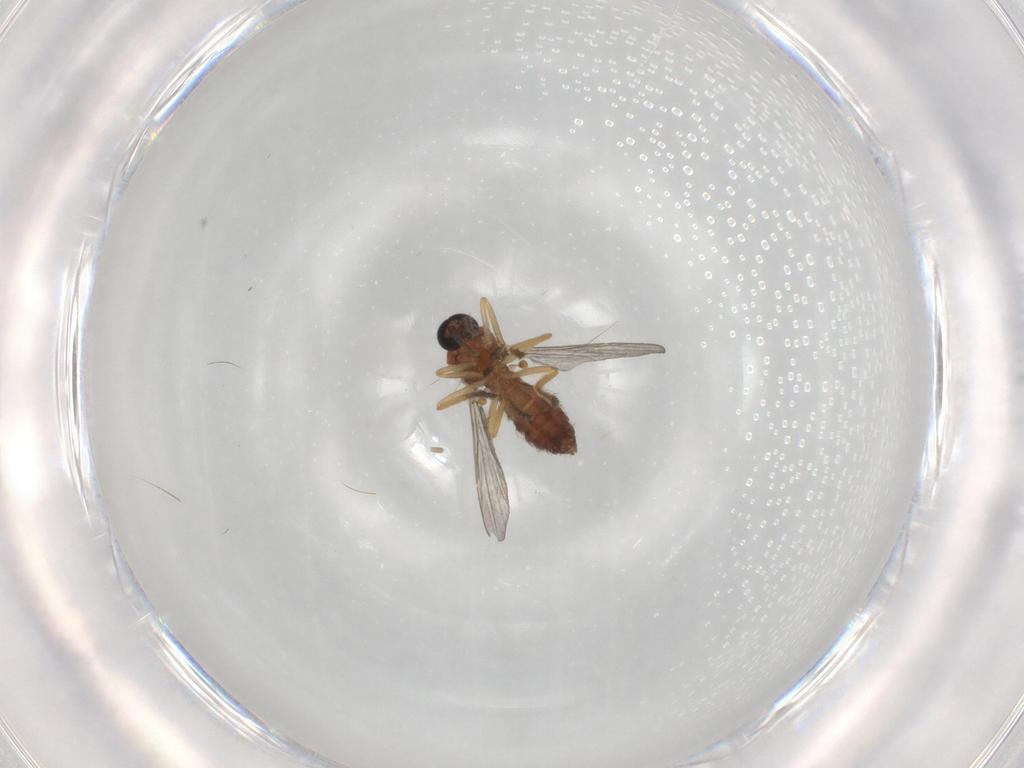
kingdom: Animalia
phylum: Arthropoda
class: Insecta
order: Diptera
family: Ceratopogonidae
